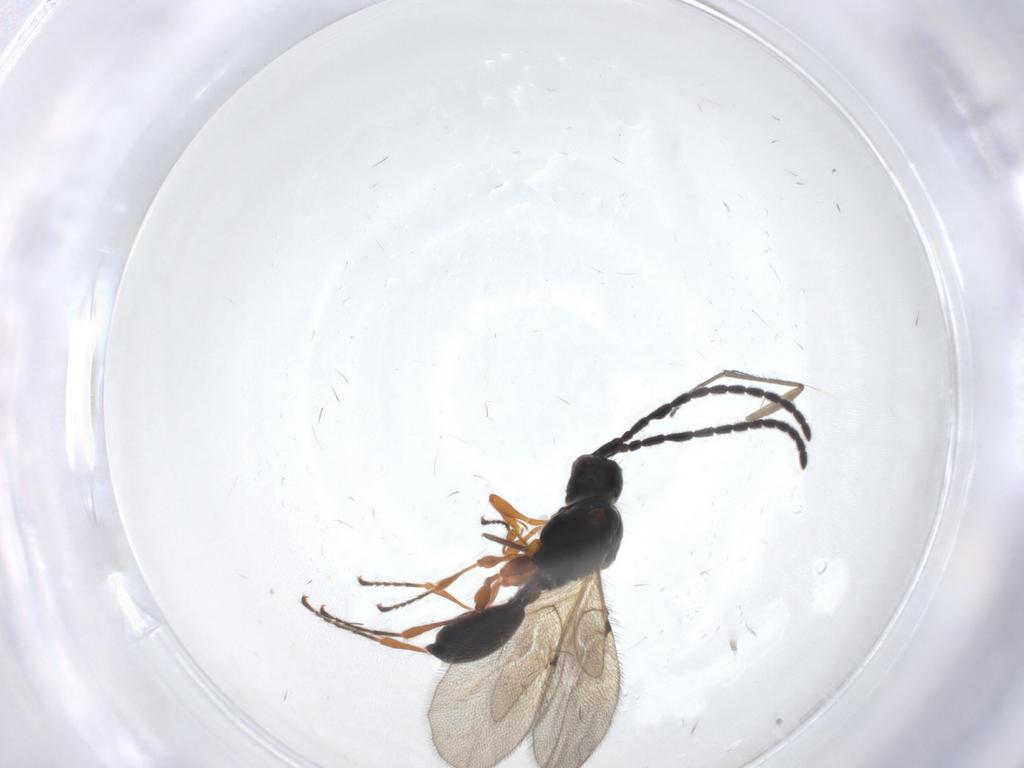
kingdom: Animalia
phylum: Arthropoda
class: Insecta
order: Hymenoptera
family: Diapriidae
